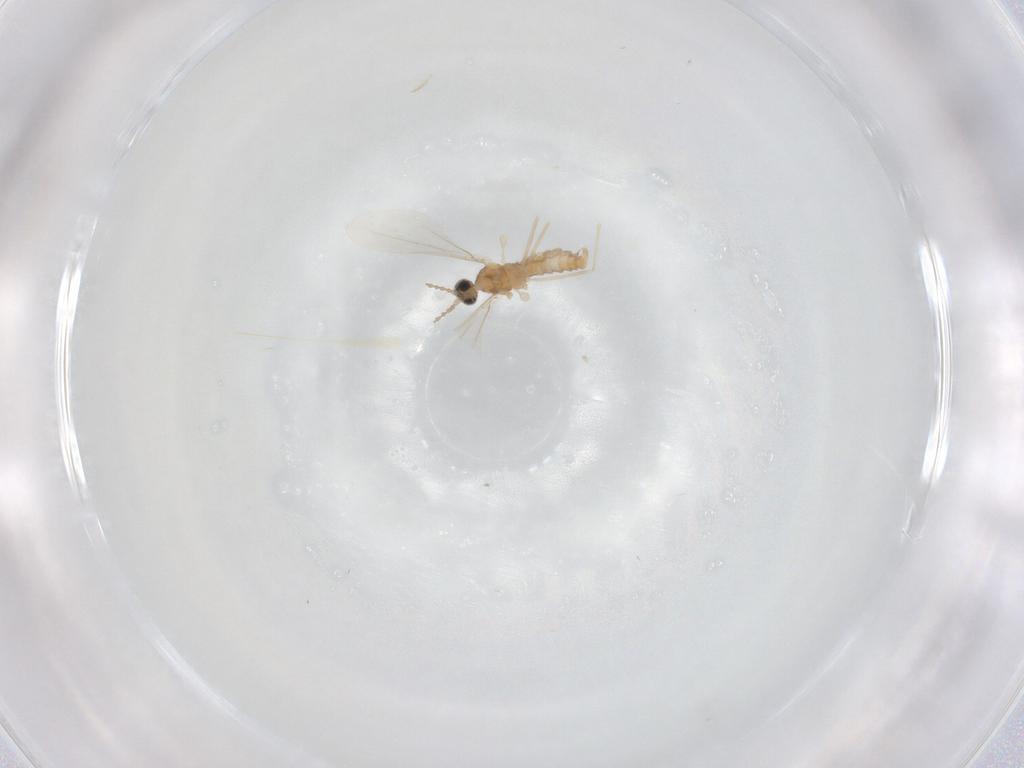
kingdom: Animalia
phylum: Arthropoda
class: Insecta
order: Diptera
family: Cecidomyiidae
